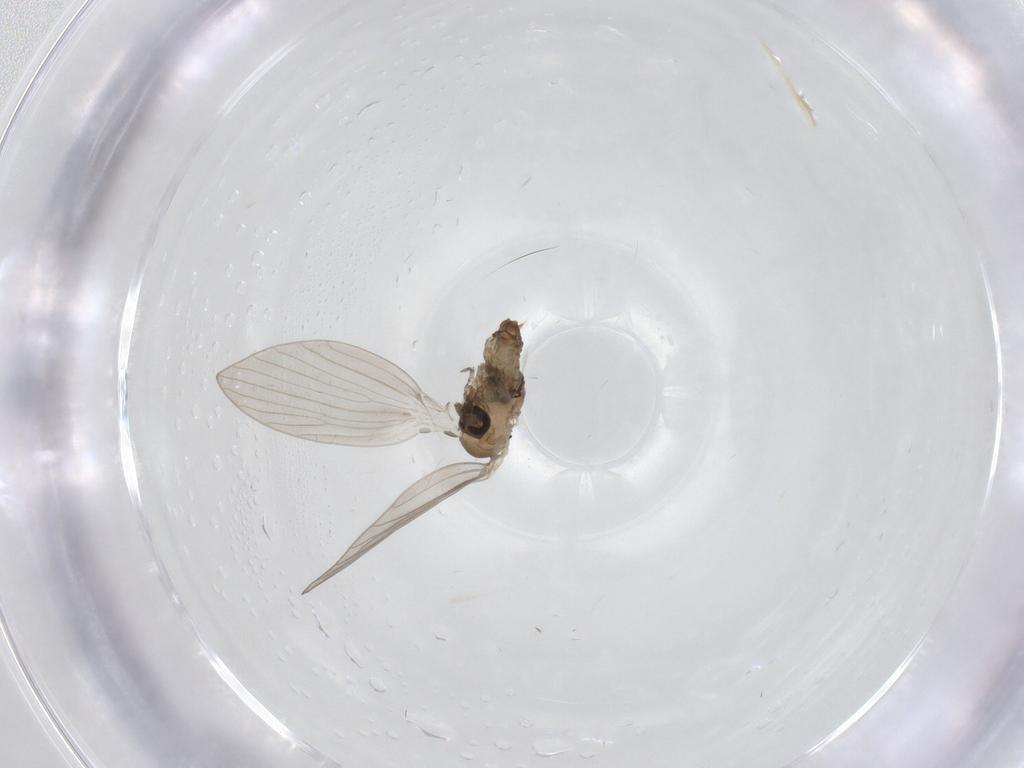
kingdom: Animalia
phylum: Arthropoda
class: Insecta
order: Diptera
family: Psychodidae
